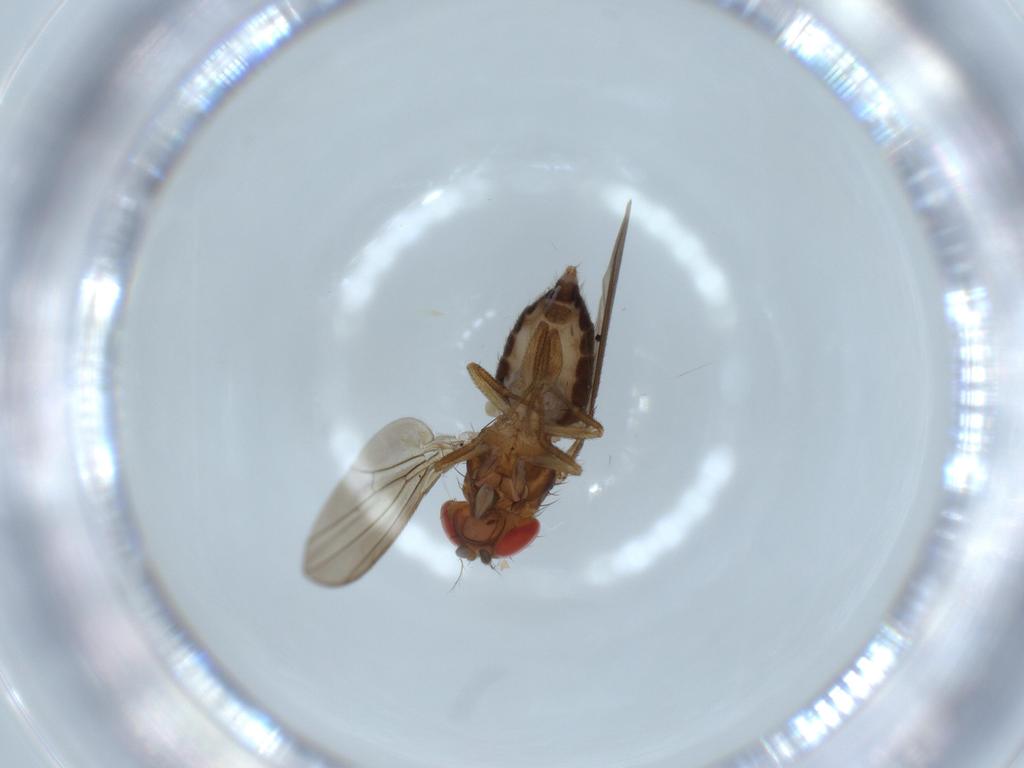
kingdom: Animalia
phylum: Arthropoda
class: Insecta
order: Diptera
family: Drosophilidae
